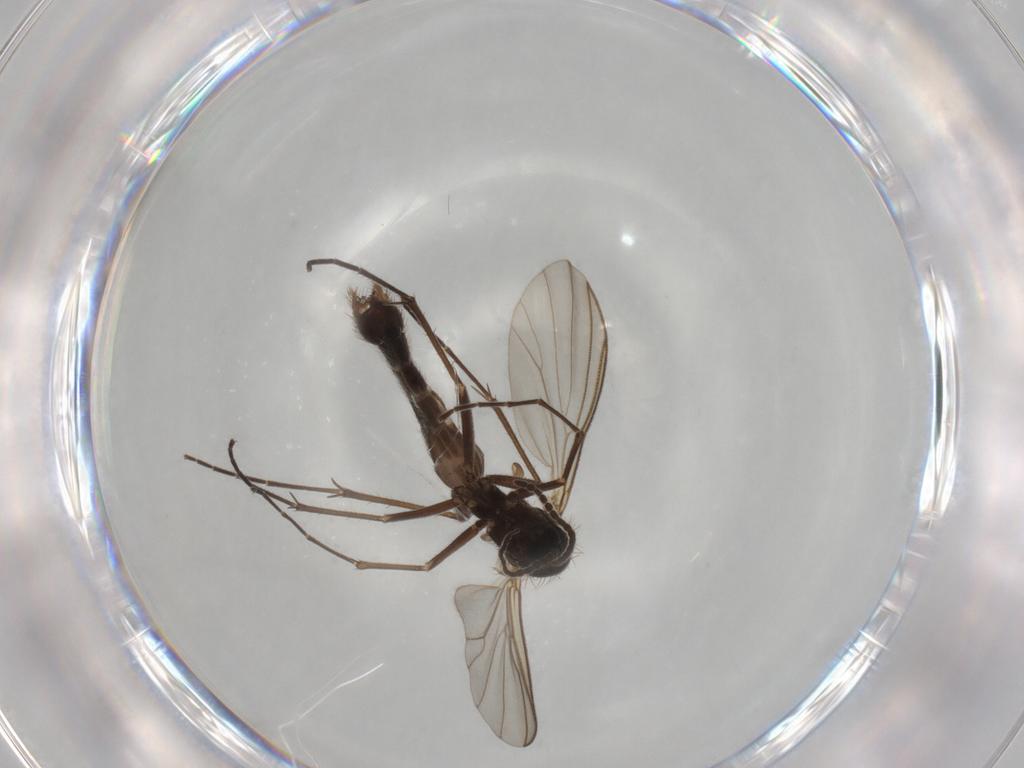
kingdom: Animalia
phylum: Arthropoda
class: Insecta
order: Diptera
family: Mycetophilidae
